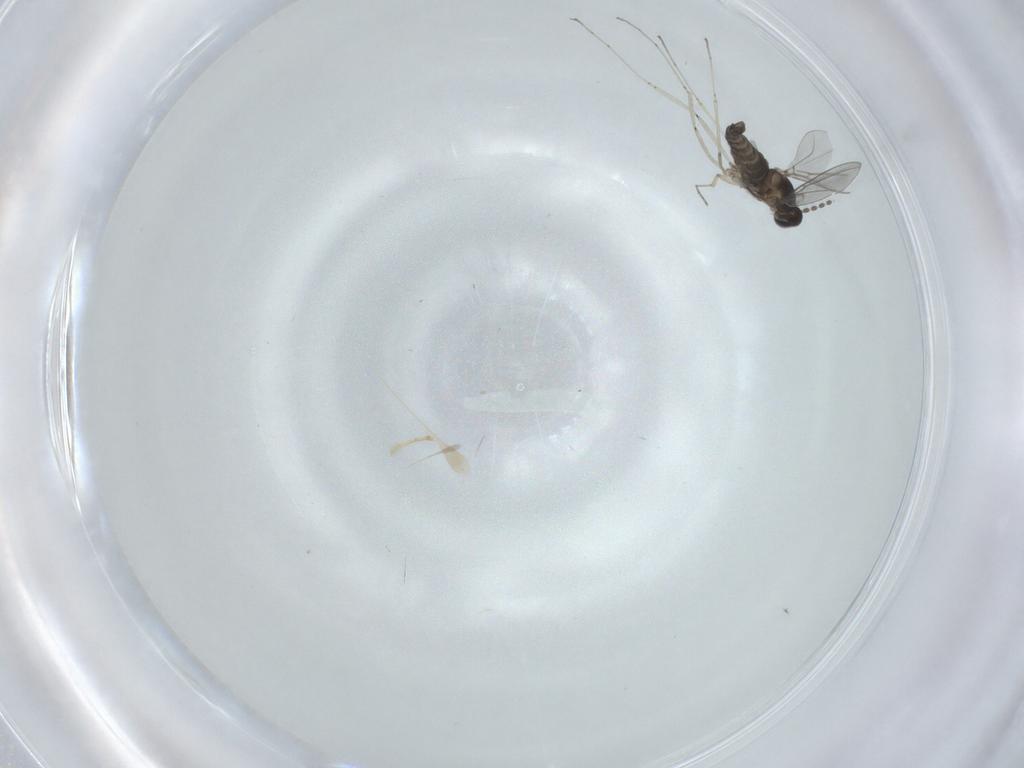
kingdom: Animalia
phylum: Arthropoda
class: Insecta
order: Diptera
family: Cecidomyiidae
